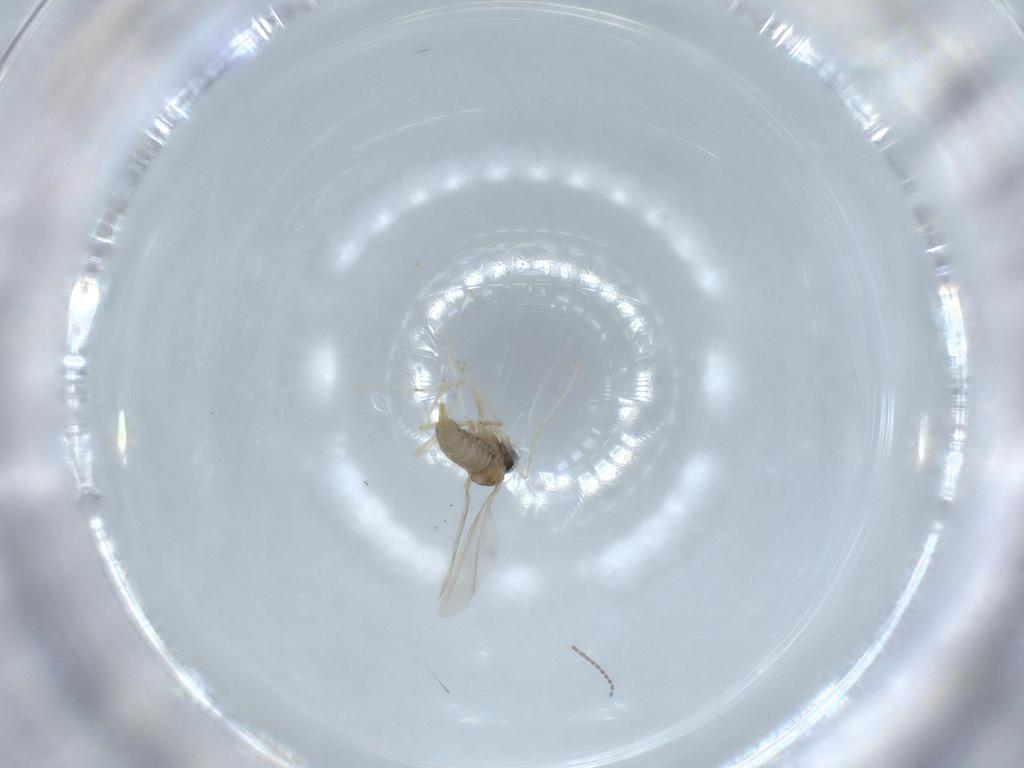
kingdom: Animalia
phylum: Arthropoda
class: Insecta
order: Diptera
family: Cecidomyiidae
